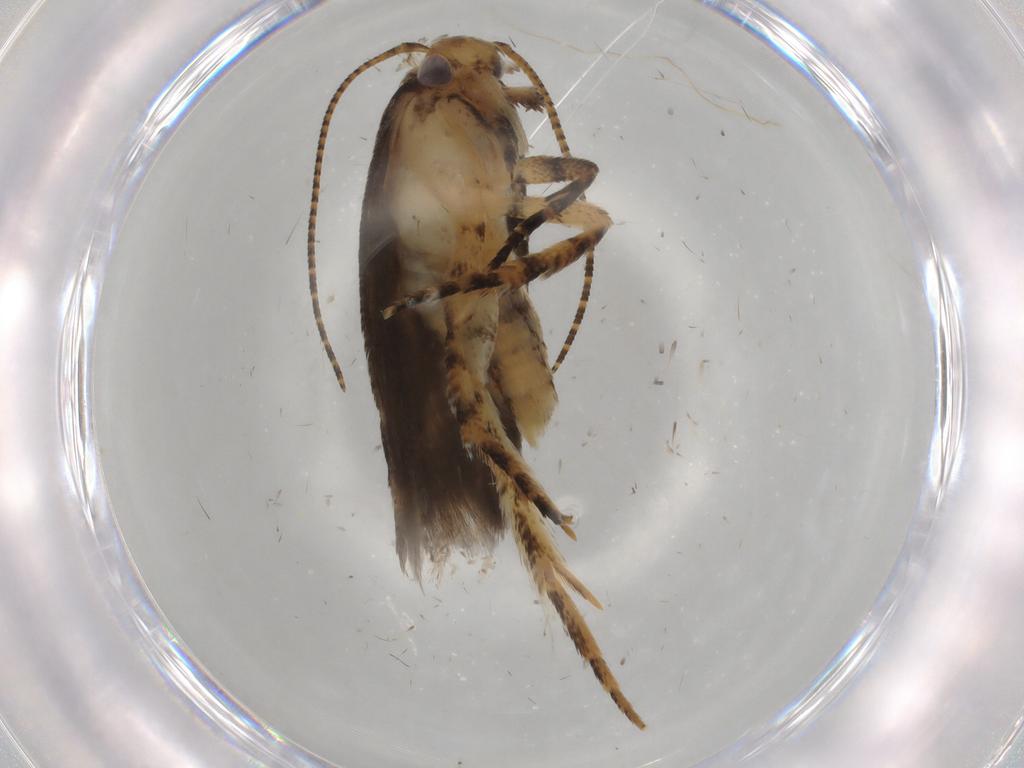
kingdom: Animalia
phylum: Arthropoda
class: Insecta
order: Lepidoptera
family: Gelechiidae
